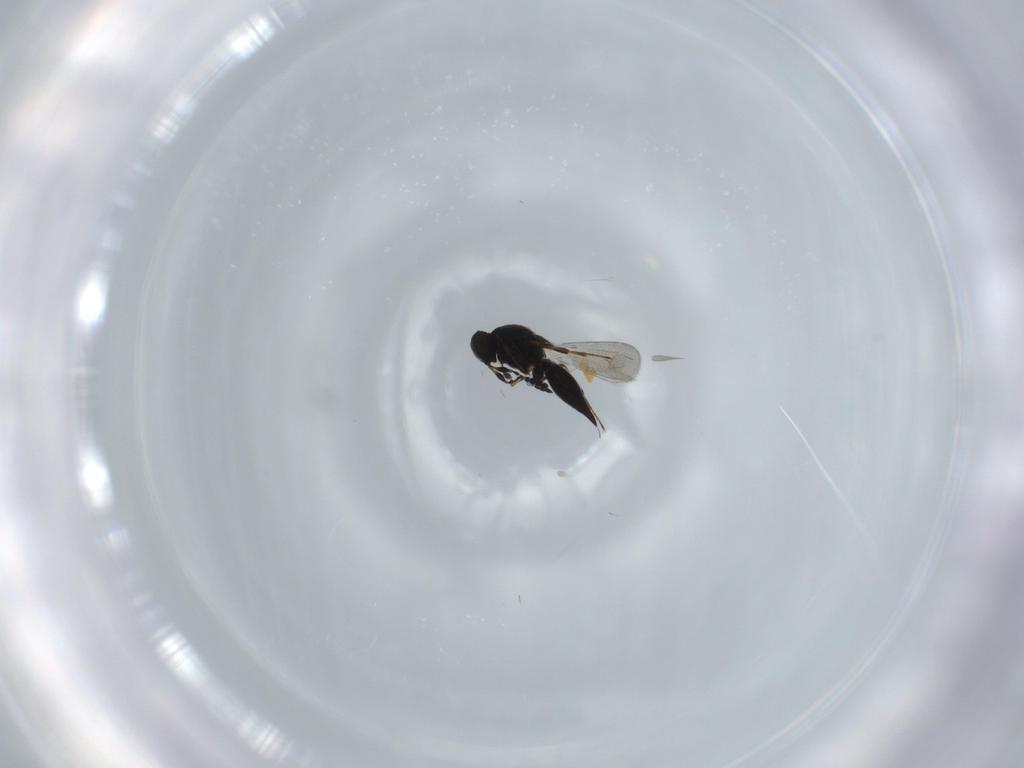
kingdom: Animalia
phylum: Arthropoda
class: Insecta
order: Hymenoptera
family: Platygastridae
